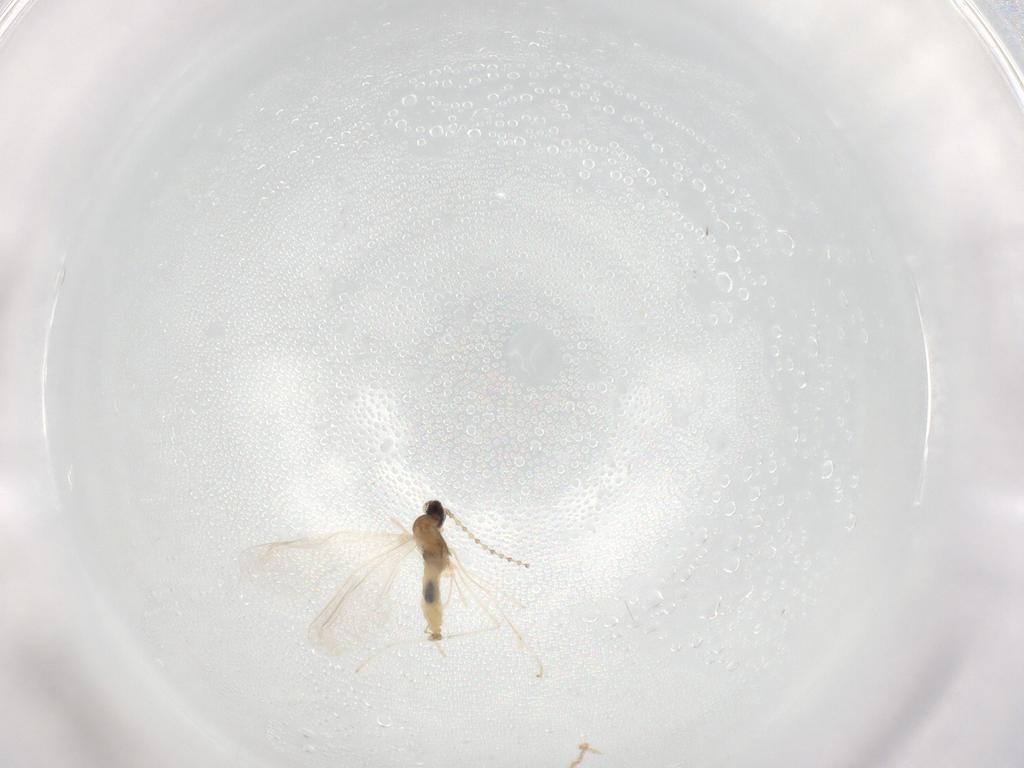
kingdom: Animalia
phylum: Arthropoda
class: Insecta
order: Diptera
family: Cecidomyiidae
